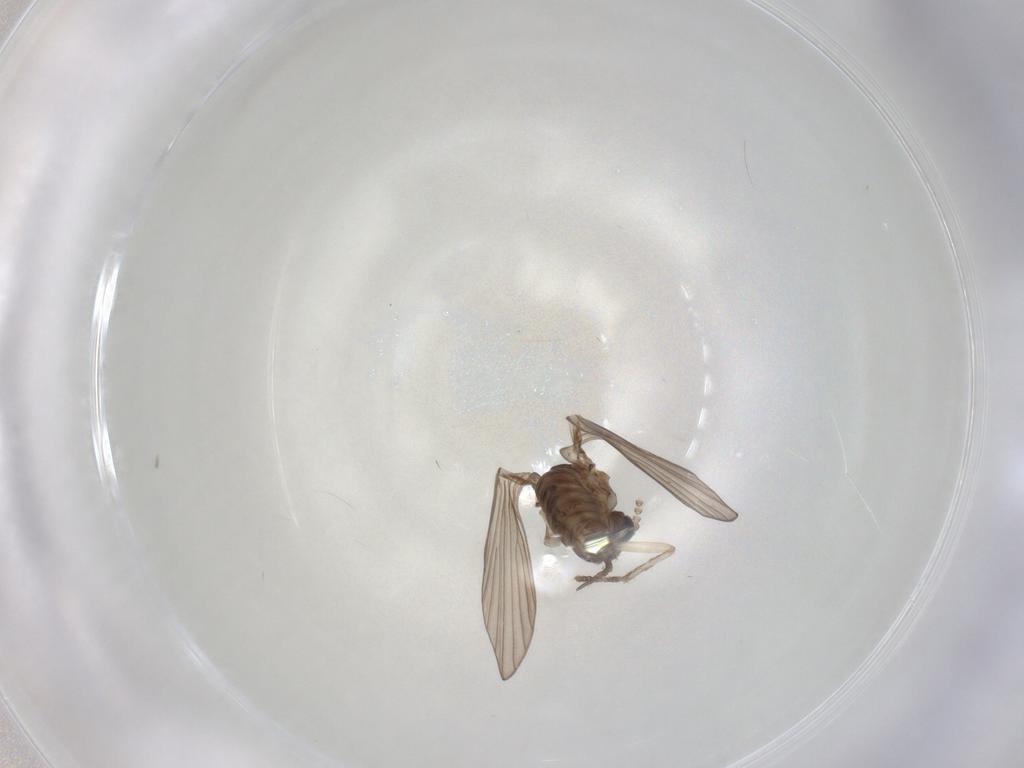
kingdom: Animalia
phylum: Arthropoda
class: Insecta
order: Diptera
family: Psychodidae
